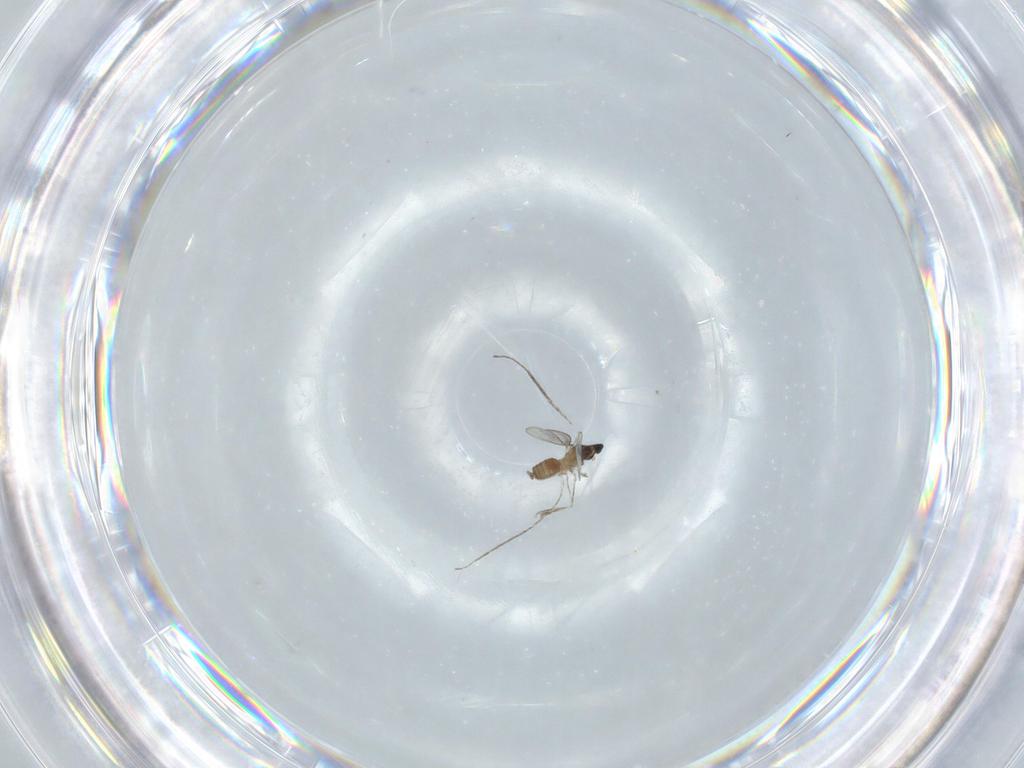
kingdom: Animalia
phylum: Arthropoda
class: Insecta
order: Diptera
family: Cecidomyiidae
